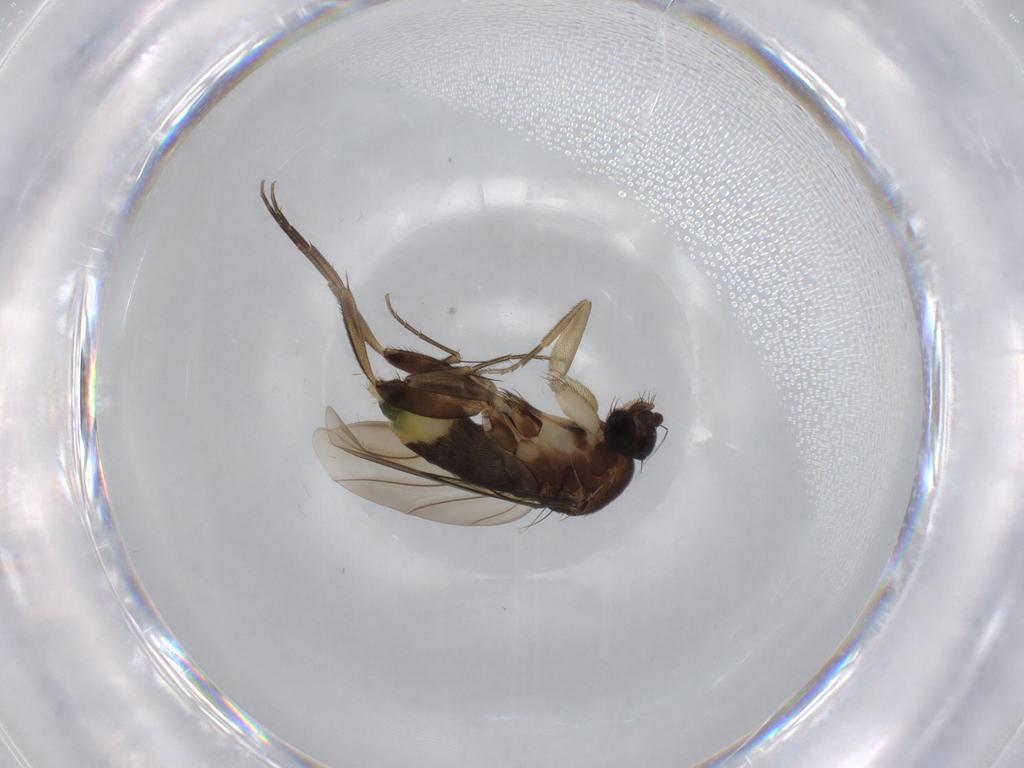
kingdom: Animalia
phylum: Arthropoda
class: Insecta
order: Diptera
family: Phoridae
